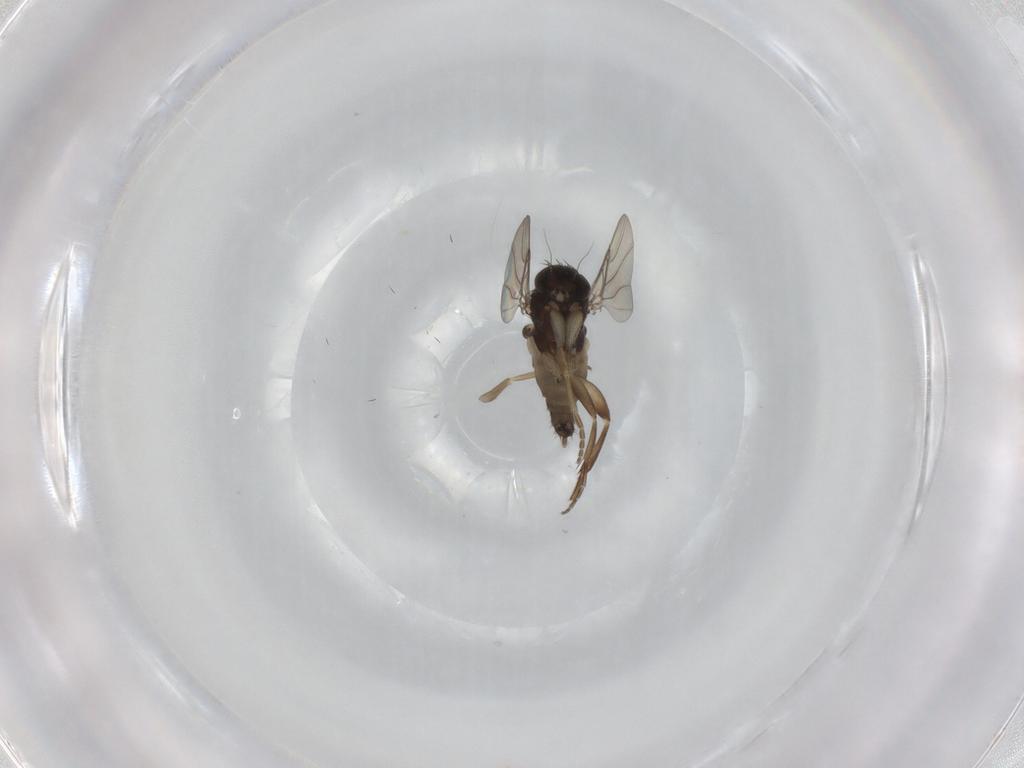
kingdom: Animalia
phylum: Arthropoda
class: Insecta
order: Diptera
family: Phoridae
